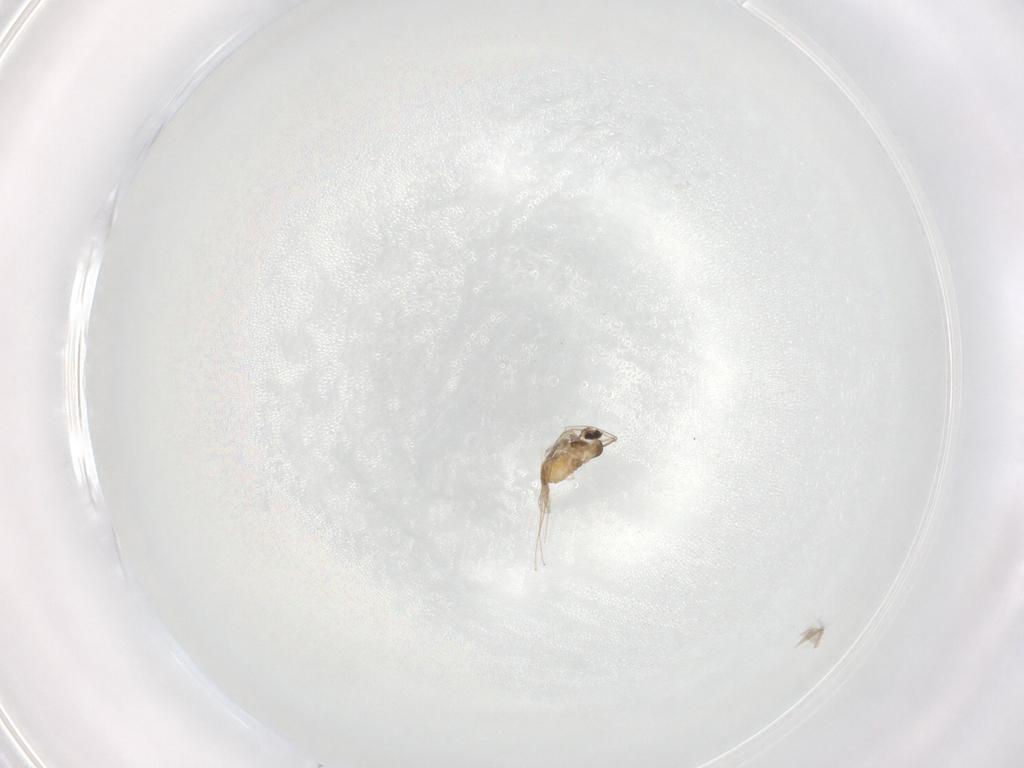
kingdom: Animalia
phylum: Arthropoda
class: Insecta
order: Diptera
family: Cecidomyiidae
